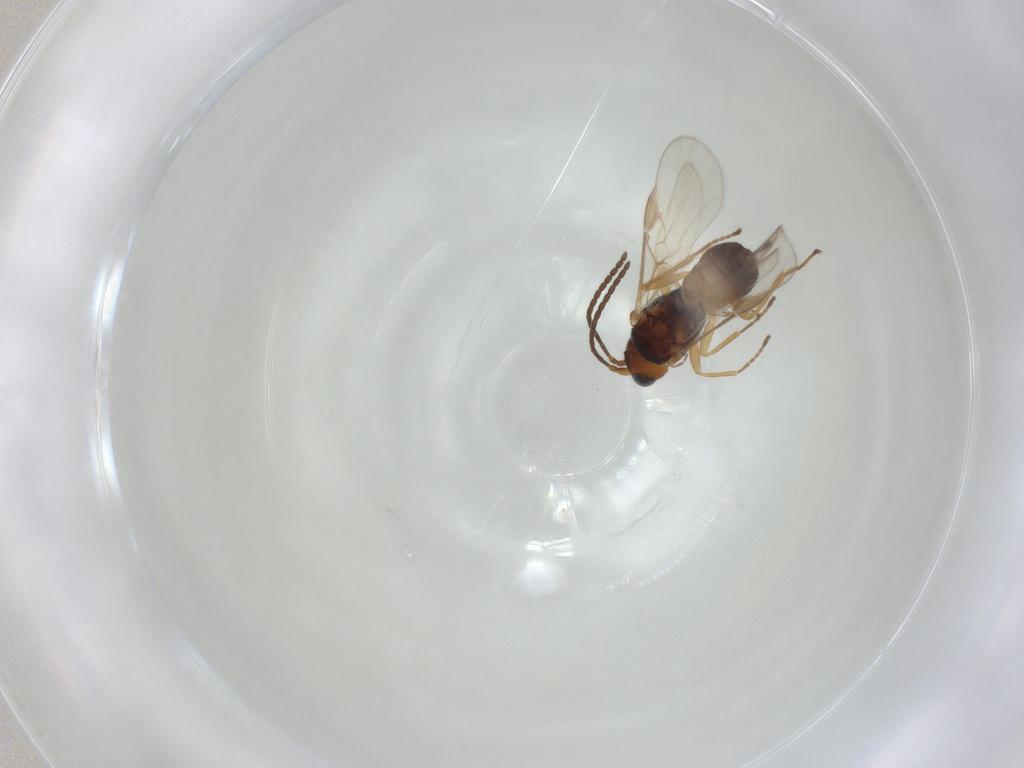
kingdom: Animalia
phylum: Arthropoda
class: Insecta
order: Hymenoptera
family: Braconidae
